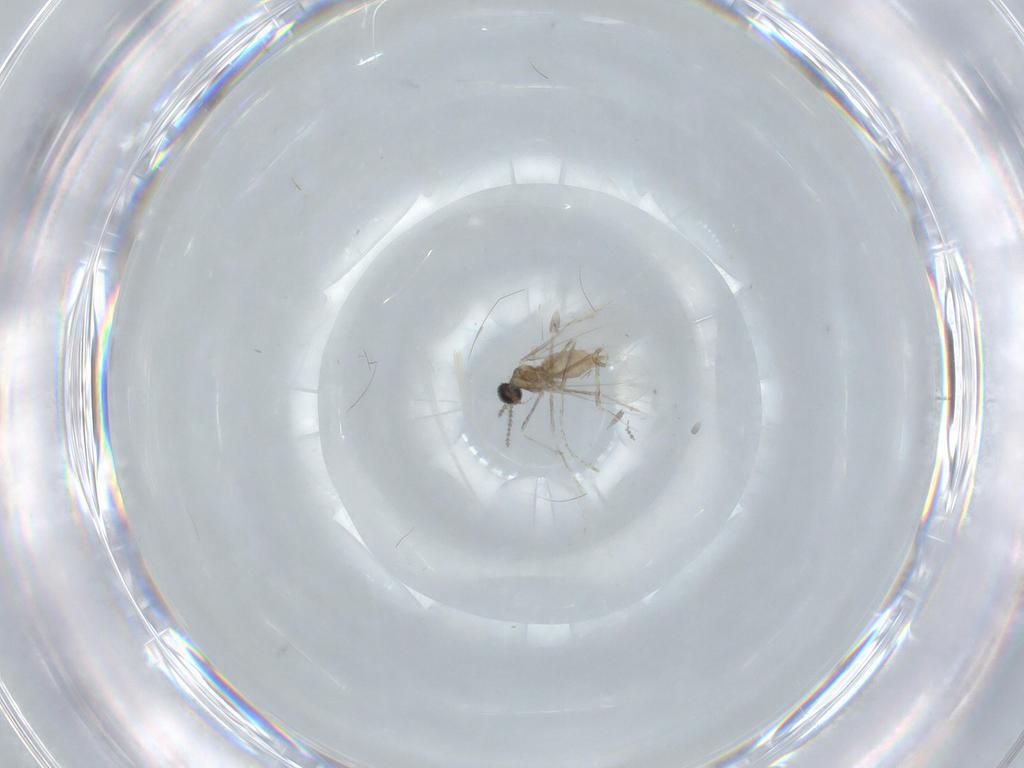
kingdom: Animalia
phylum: Arthropoda
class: Insecta
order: Diptera
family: Cecidomyiidae
